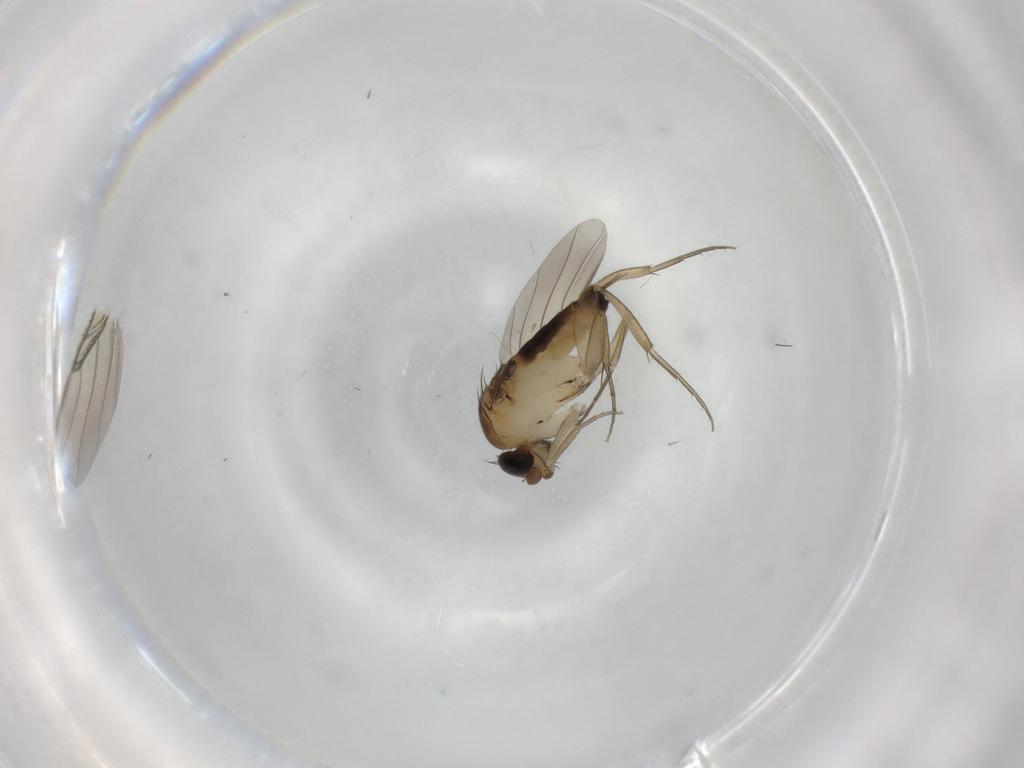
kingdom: Animalia
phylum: Arthropoda
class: Insecta
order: Diptera
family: Phoridae
